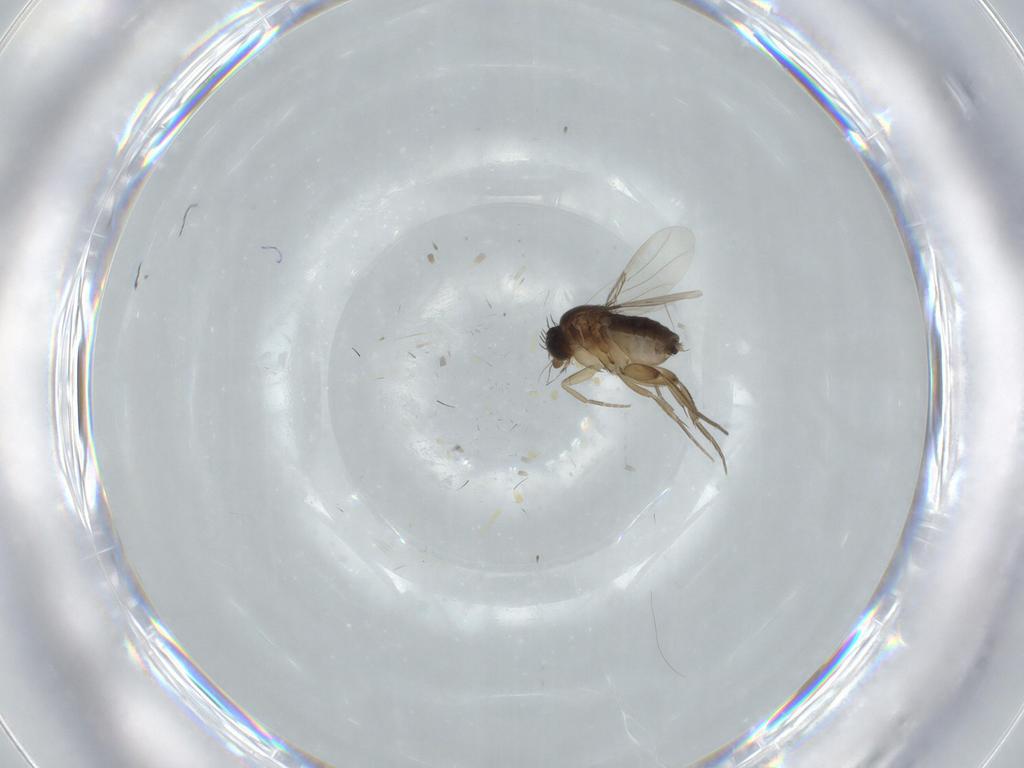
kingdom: Animalia
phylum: Arthropoda
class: Insecta
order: Diptera
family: Phoridae
